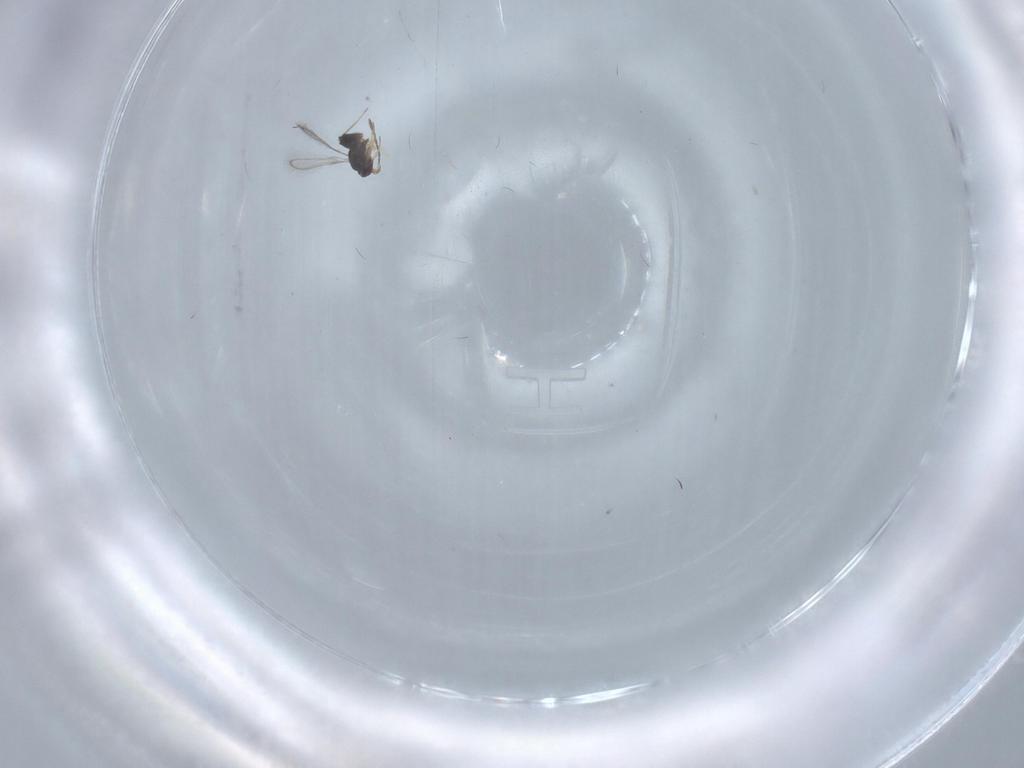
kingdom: Animalia
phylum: Arthropoda
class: Insecta
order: Hymenoptera
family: Mymaridae
